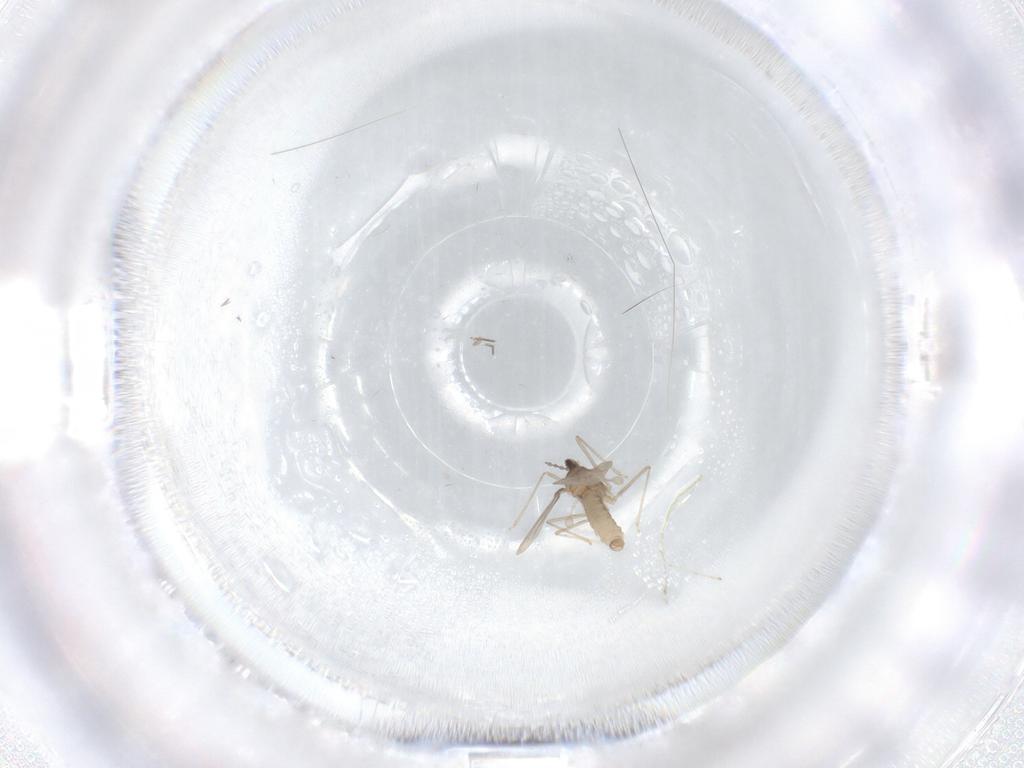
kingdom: Animalia
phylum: Arthropoda
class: Insecta
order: Diptera
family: Cecidomyiidae
